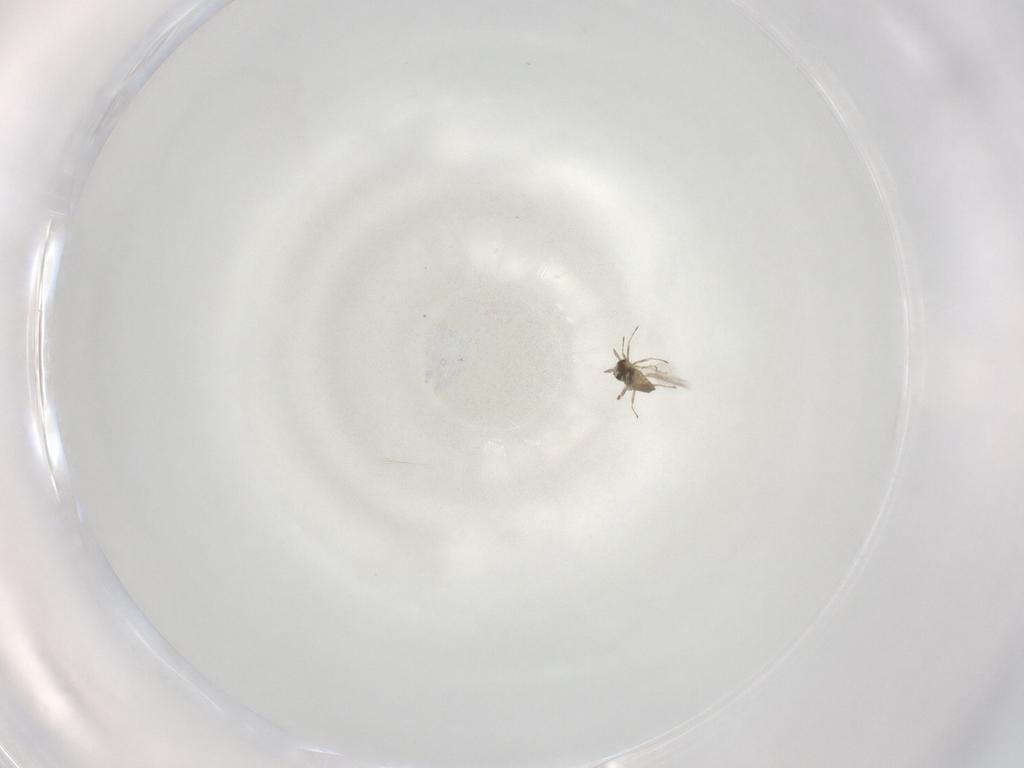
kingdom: Animalia
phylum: Arthropoda
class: Insecta
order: Hymenoptera
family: Trichogrammatidae
